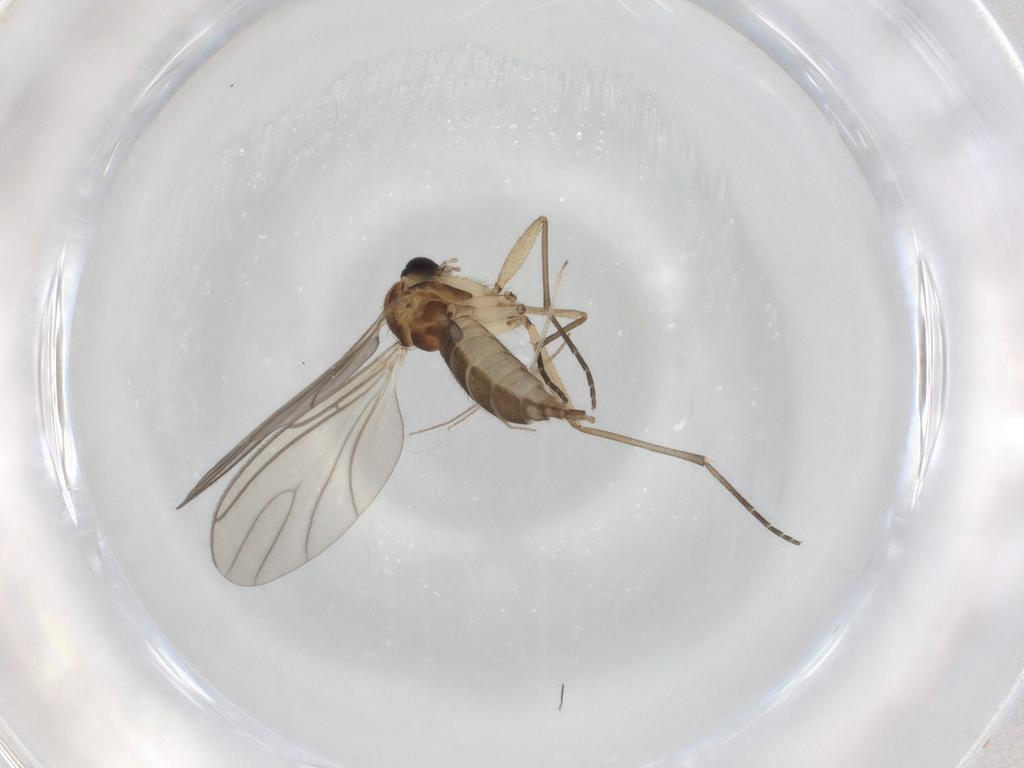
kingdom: Animalia
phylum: Arthropoda
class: Insecta
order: Diptera
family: Sciaridae
